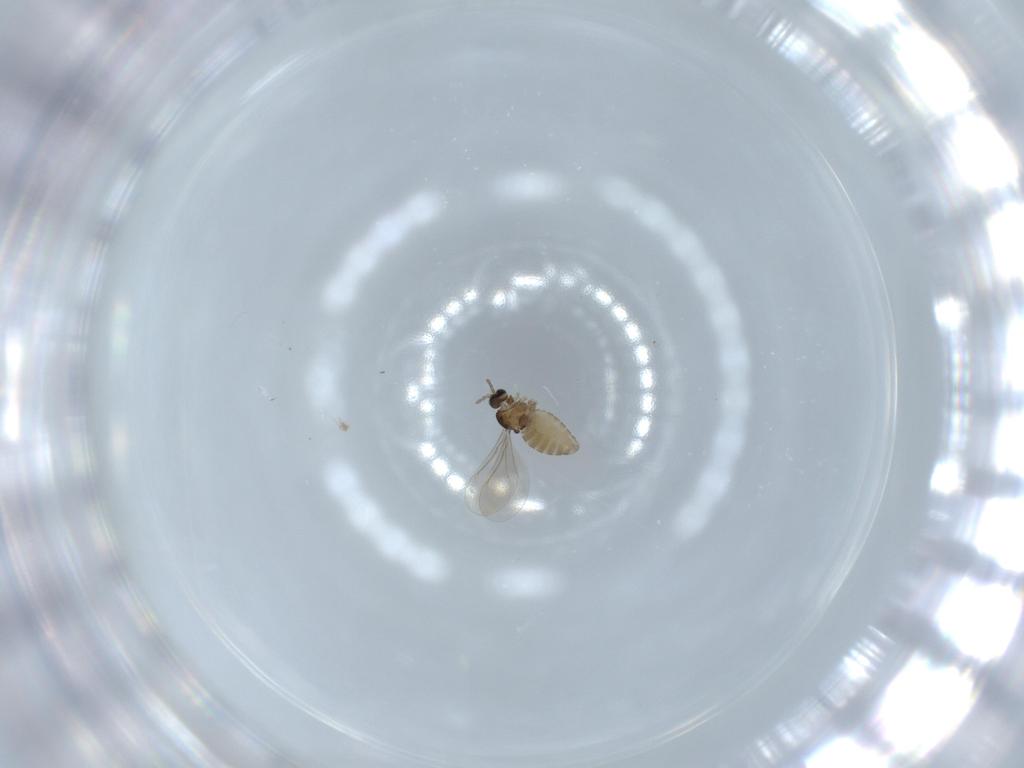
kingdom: Animalia
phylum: Arthropoda
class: Insecta
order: Diptera
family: Cecidomyiidae
